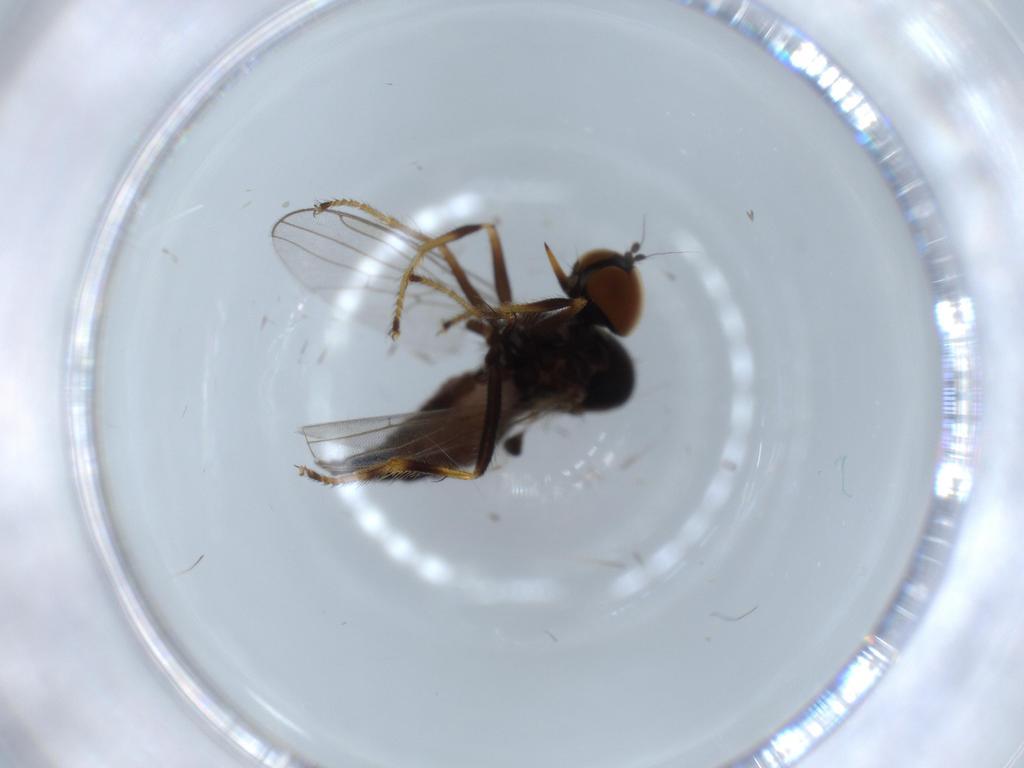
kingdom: Animalia
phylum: Arthropoda
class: Insecta
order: Diptera
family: Hybotidae
